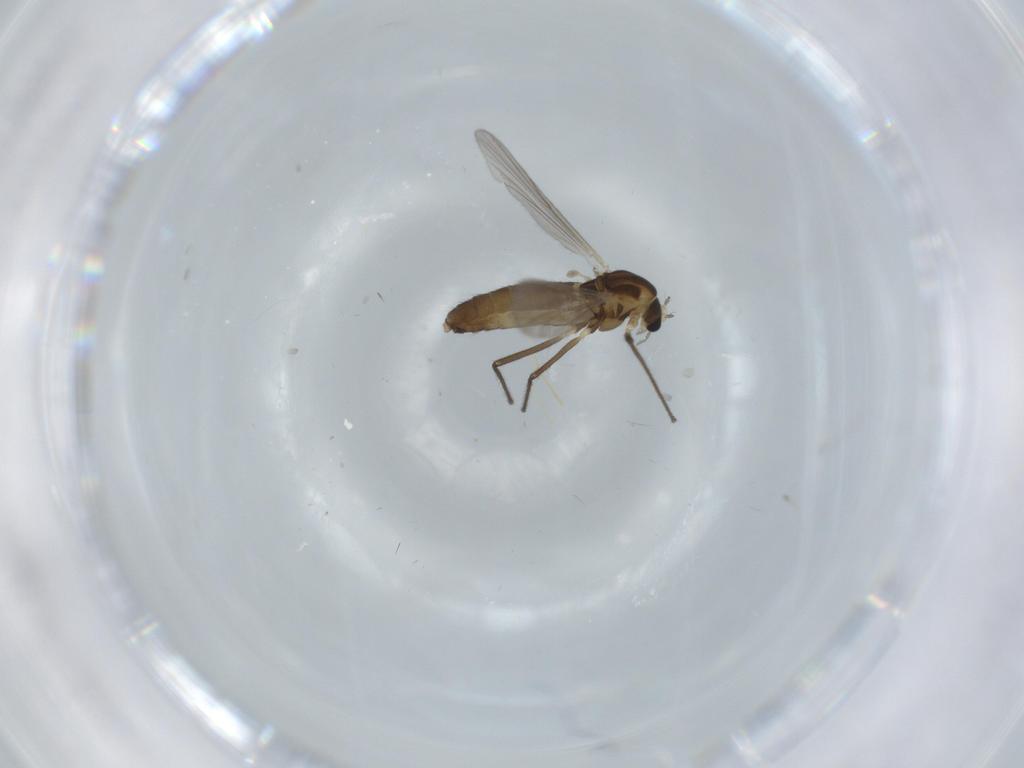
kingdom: Animalia
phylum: Arthropoda
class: Insecta
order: Diptera
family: Chironomidae
